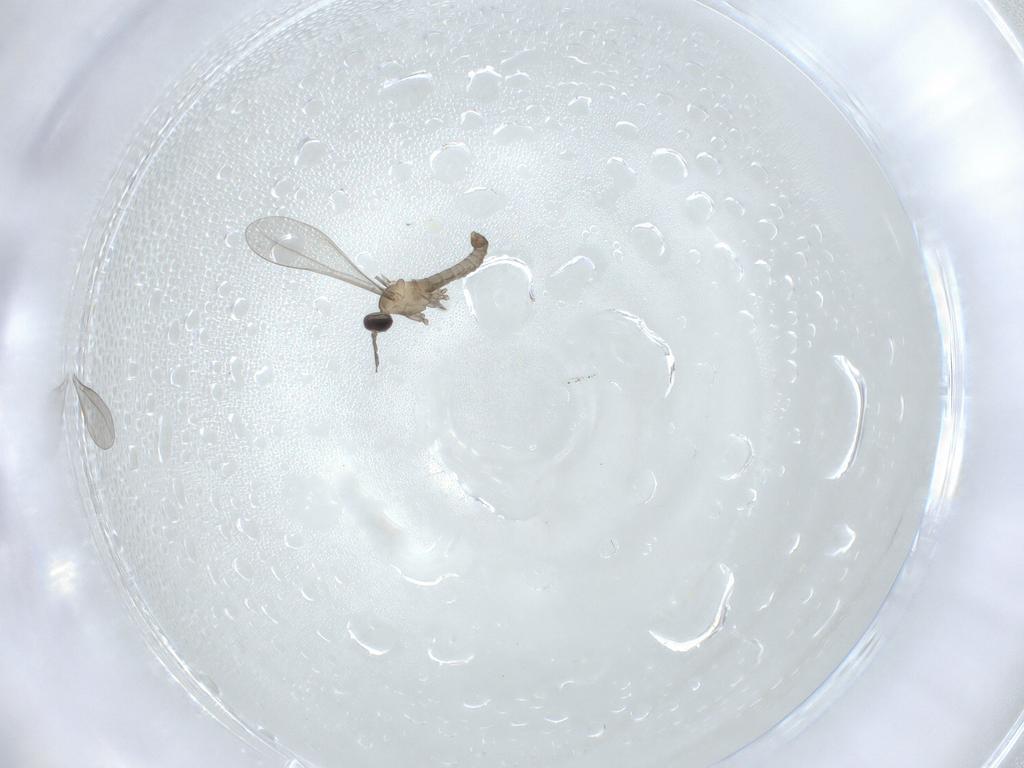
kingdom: Animalia
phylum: Arthropoda
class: Insecta
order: Diptera
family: Cecidomyiidae
